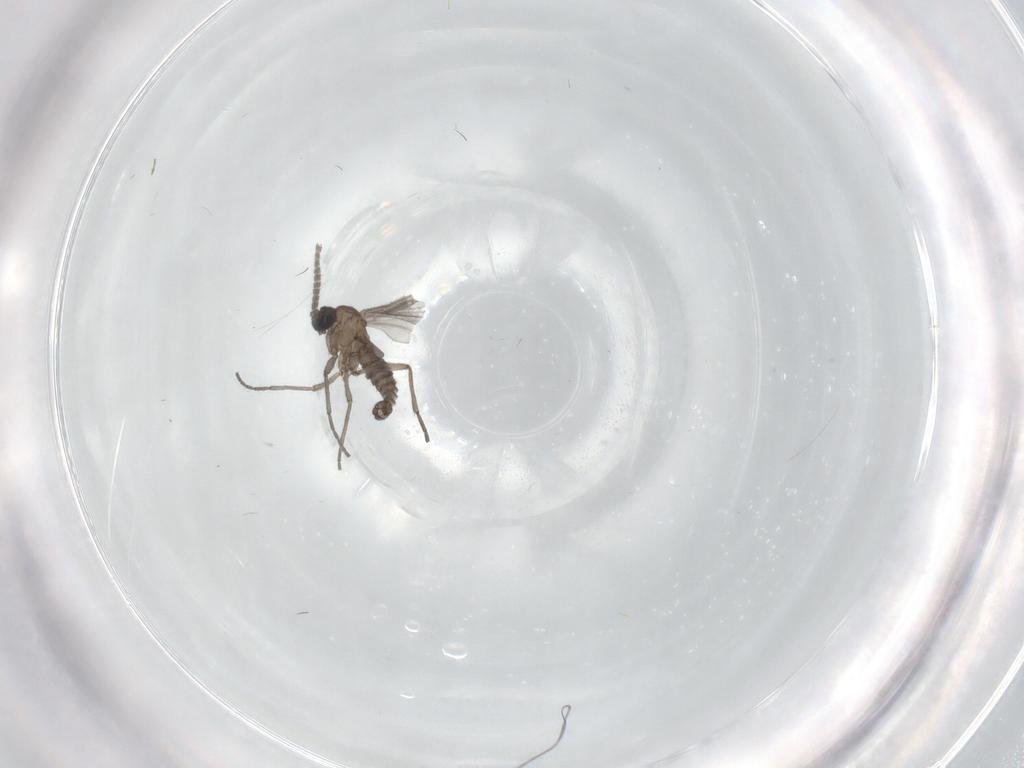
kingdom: Animalia
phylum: Arthropoda
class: Insecta
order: Diptera
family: Sciaridae
